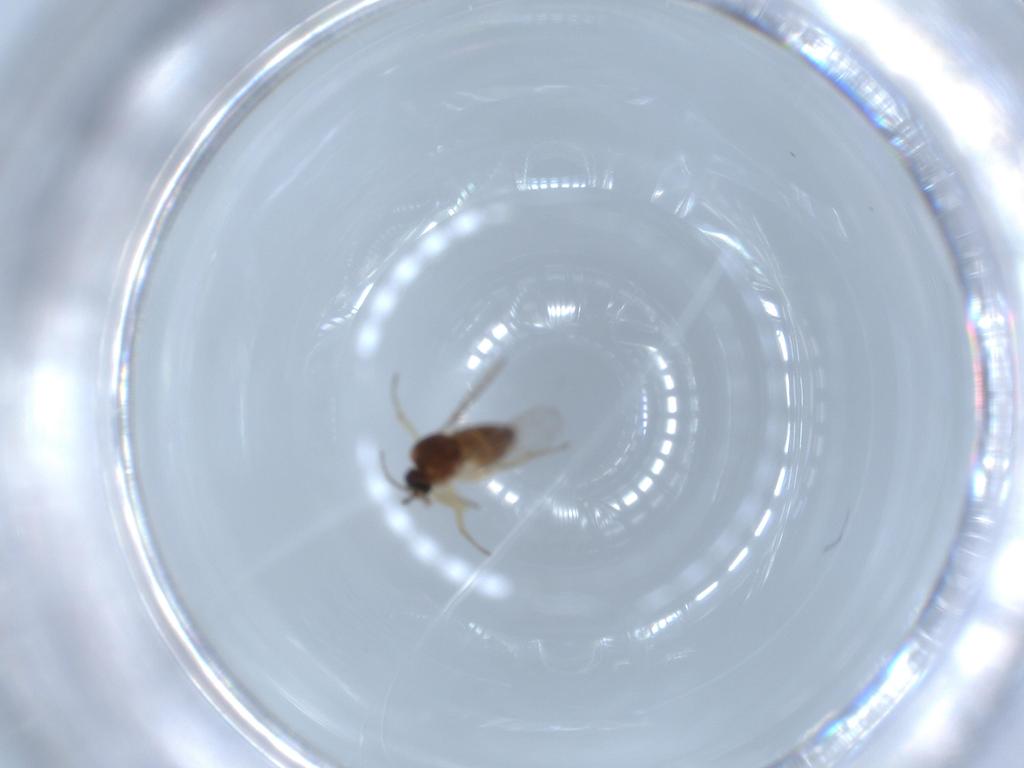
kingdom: Animalia
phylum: Arthropoda
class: Insecta
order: Diptera
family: Ceratopogonidae
